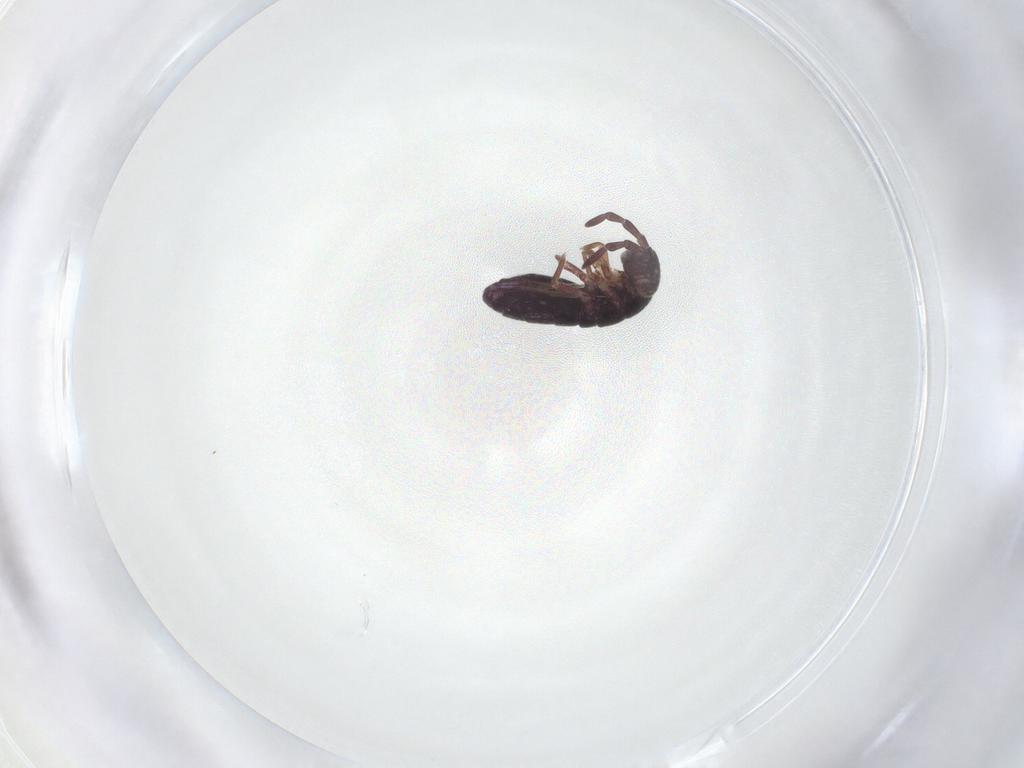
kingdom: Animalia
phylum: Arthropoda
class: Collembola
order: Entomobryomorpha
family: Isotomidae
